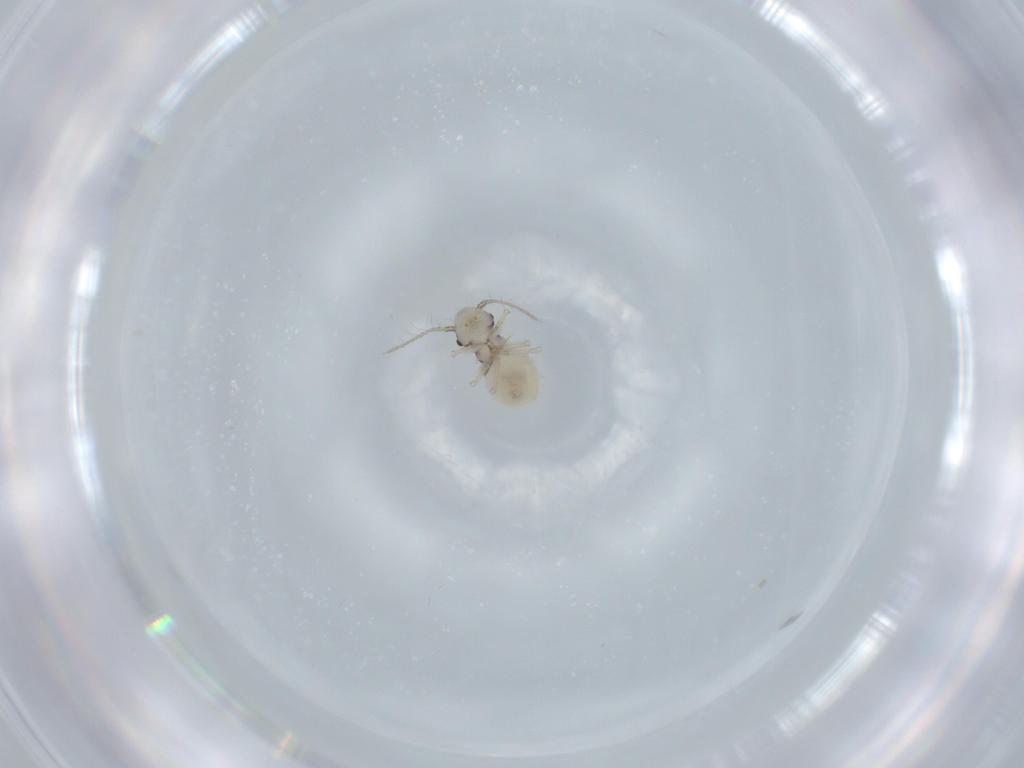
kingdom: Animalia
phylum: Arthropoda
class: Insecta
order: Psocodea
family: Pseudocaeciliidae
